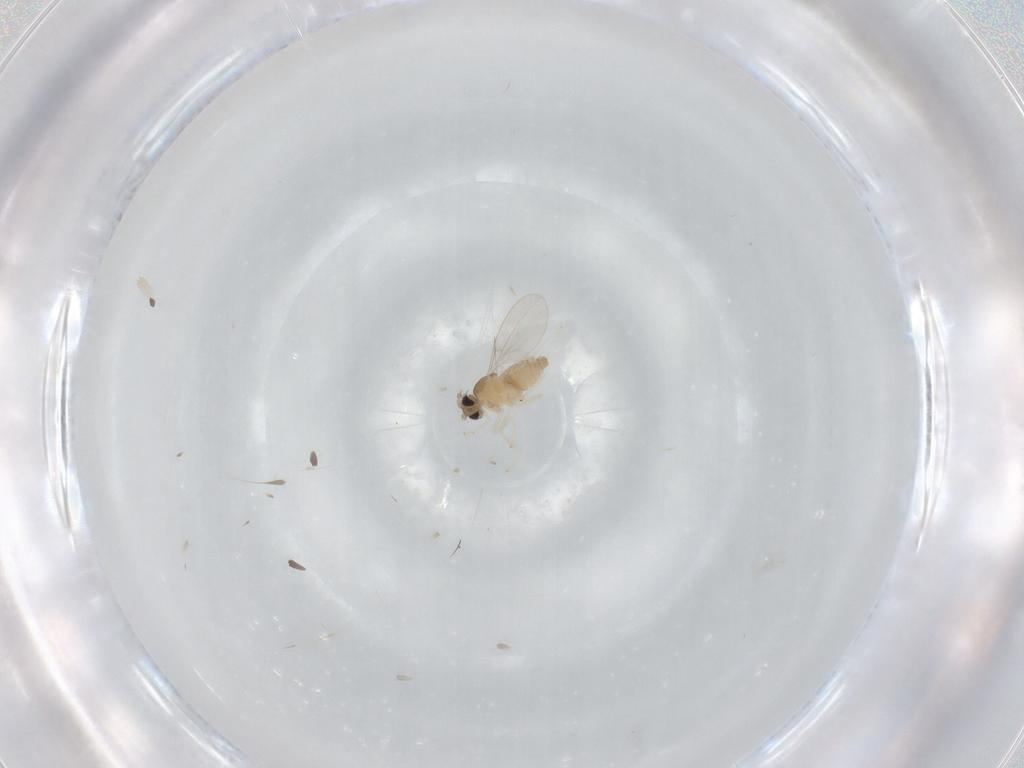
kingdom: Animalia
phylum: Arthropoda
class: Insecta
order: Diptera
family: Cecidomyiidae
